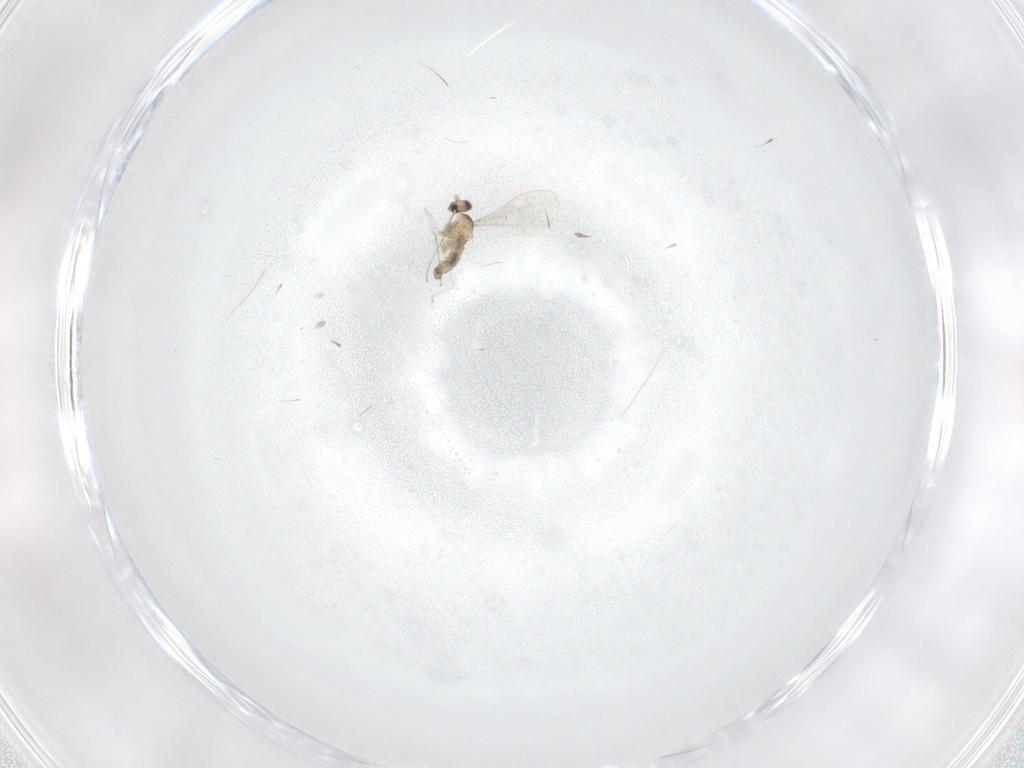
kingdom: Animalia
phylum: Arthropoda
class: Insecta
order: Diptera
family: Cecidomyiidae
